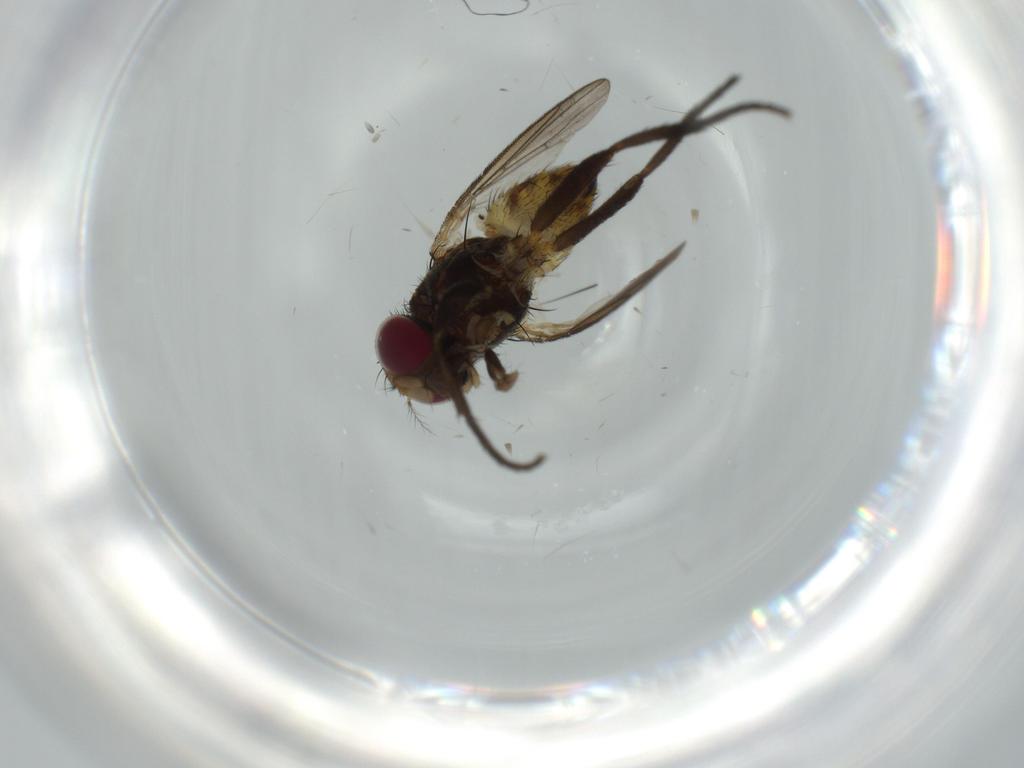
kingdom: Animalia
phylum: Arthropoda
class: Insecta
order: Diptera
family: Anthomyiidae
